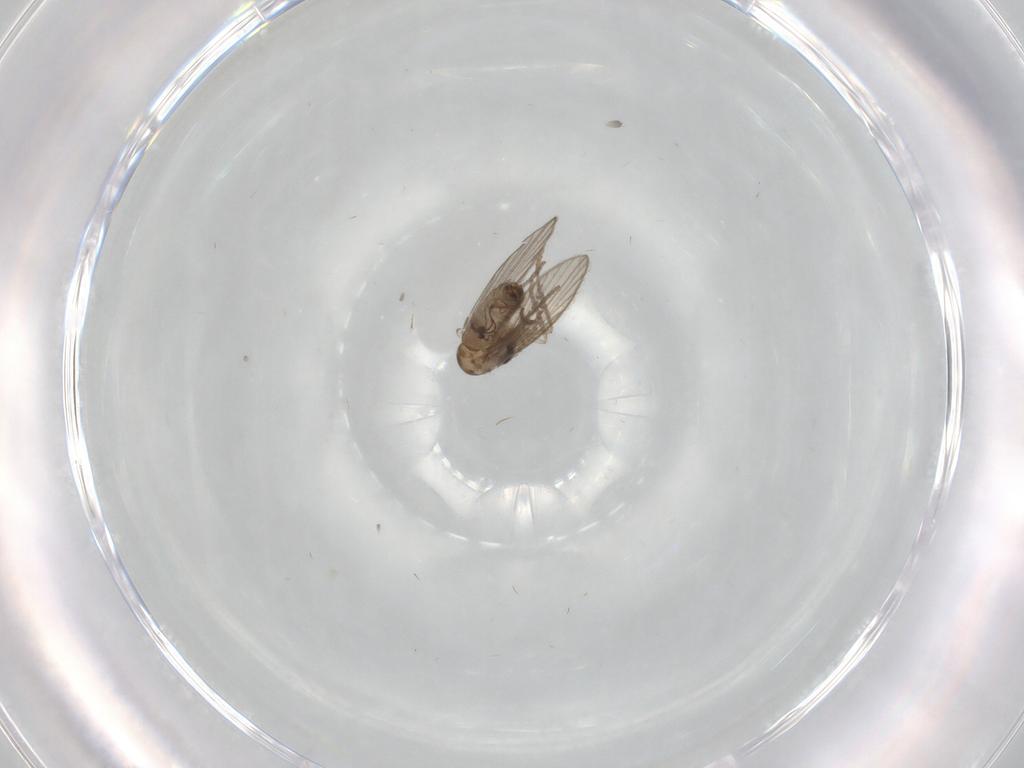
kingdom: Animalia
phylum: Arthropoda
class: Insecta
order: Diptera
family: Psychodidae
